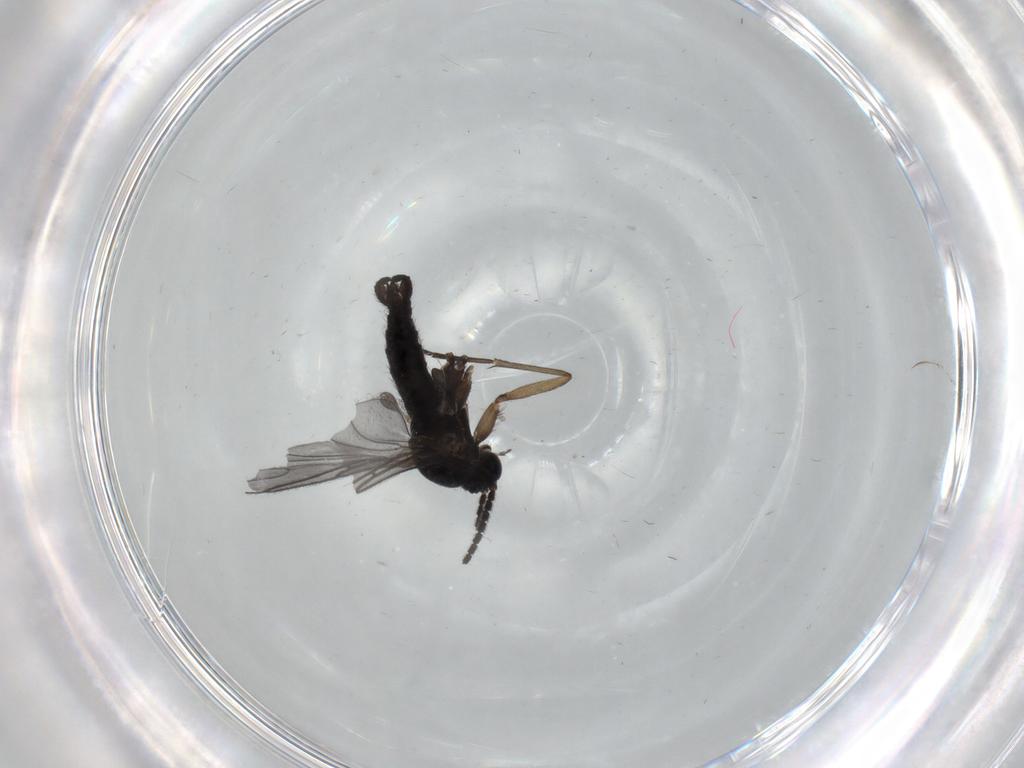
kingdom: Animalia
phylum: Arthropoda
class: Insecta
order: Diptera
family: Sciaridae
